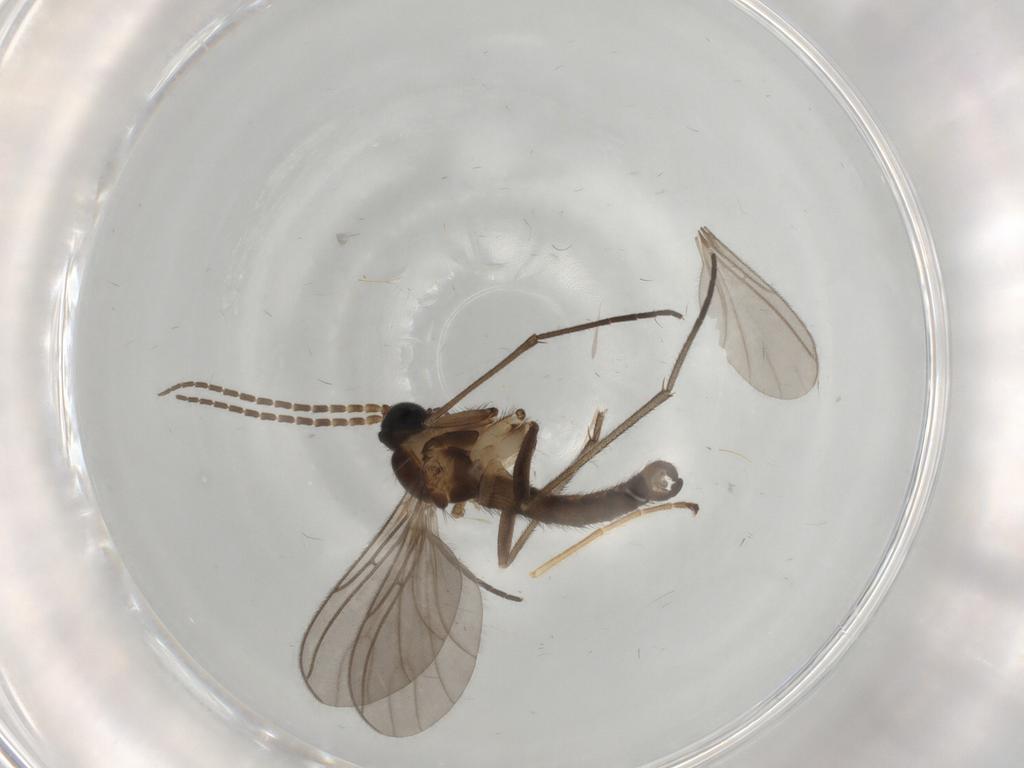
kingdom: Animalia
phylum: Arthropoda
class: Insecta
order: Diptera
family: Sciaridae
